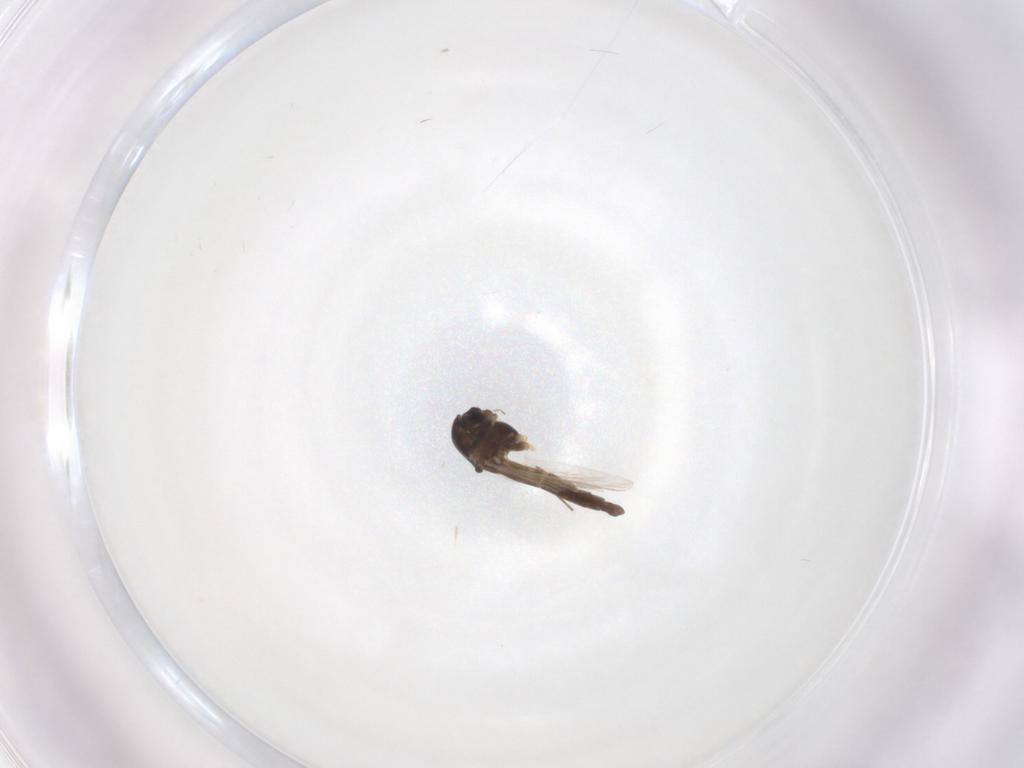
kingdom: Animalia
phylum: Arthropoda
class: Insecta
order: Diptera
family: Chironomidae
